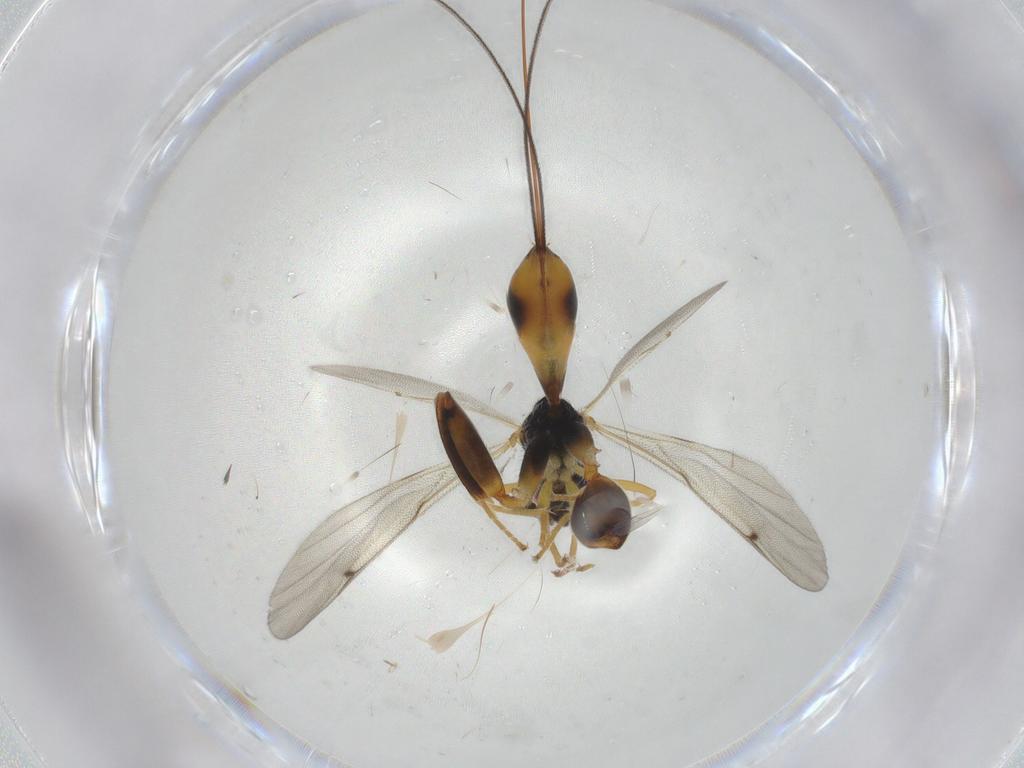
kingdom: Animalia
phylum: Arthropoda
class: Insecta
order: Hymenoptera
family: Torymidae
